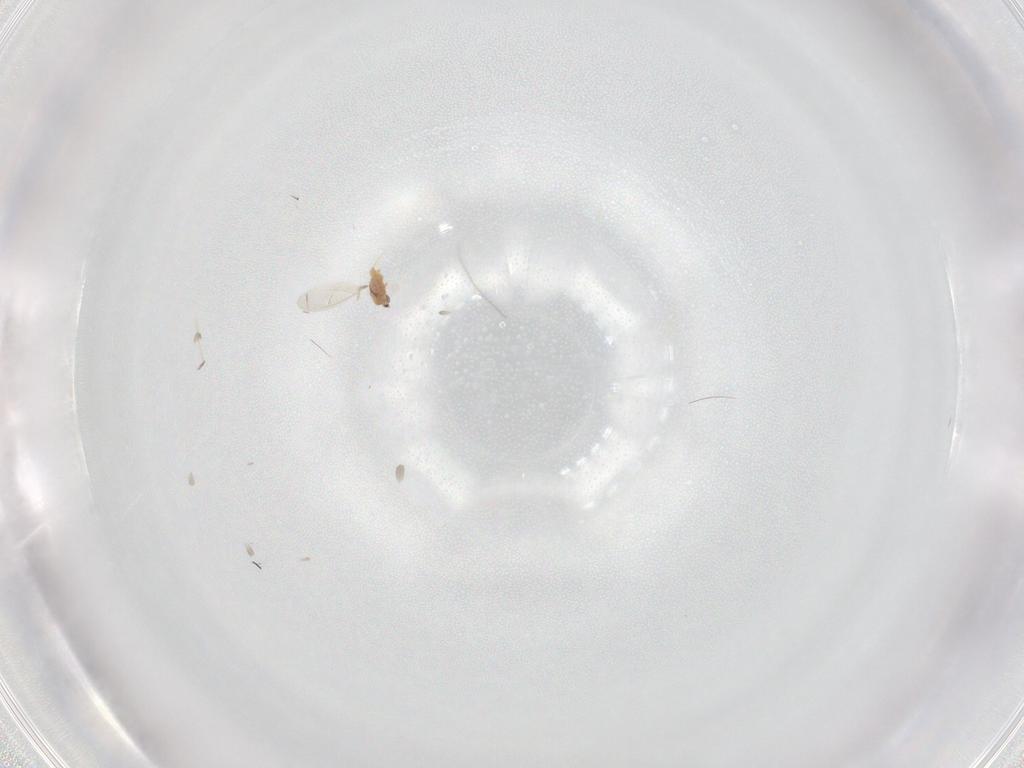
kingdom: Animalia
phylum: Arthropoda
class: Insecta
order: Hemiptera
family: Diaspididae
